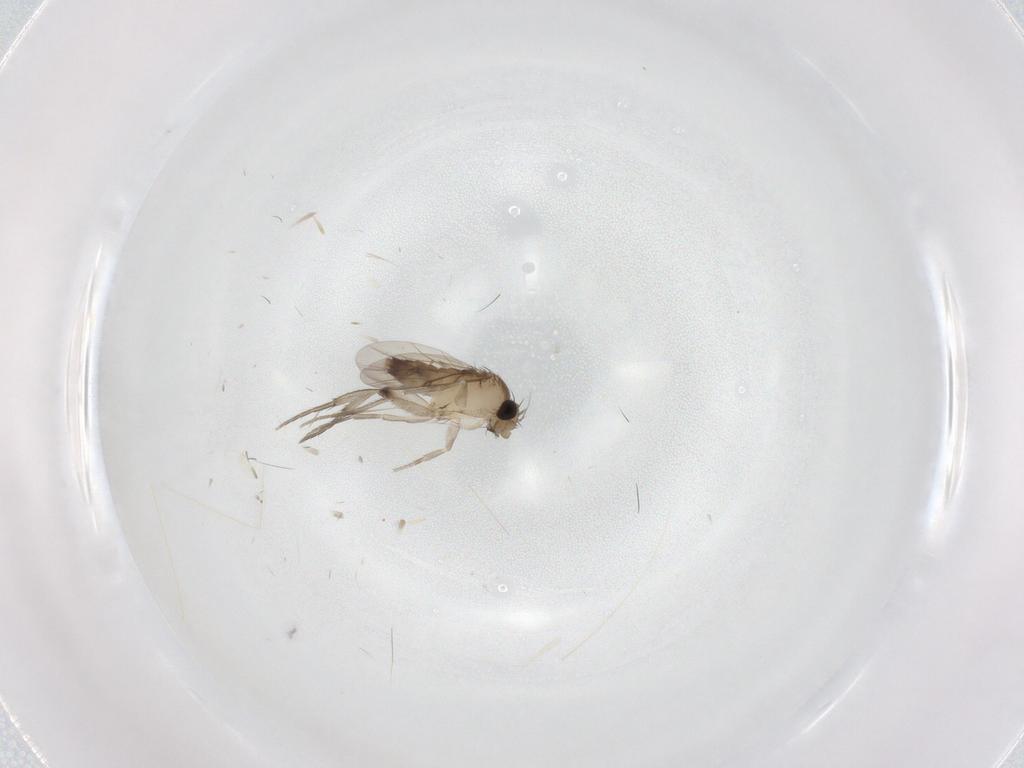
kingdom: Animalia
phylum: Arthropoda
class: Insecta
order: Diptera
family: Phoridae
